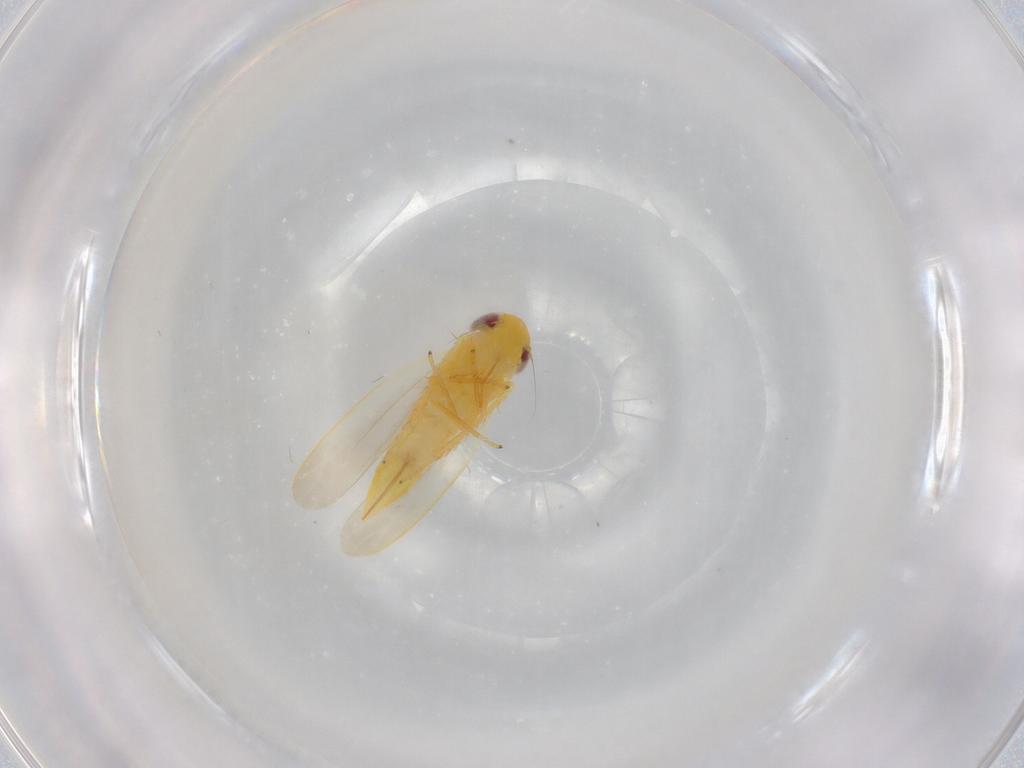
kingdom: Animalia
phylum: Arthropoda
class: Insecta
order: Hemiptera
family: Cicadellidae
